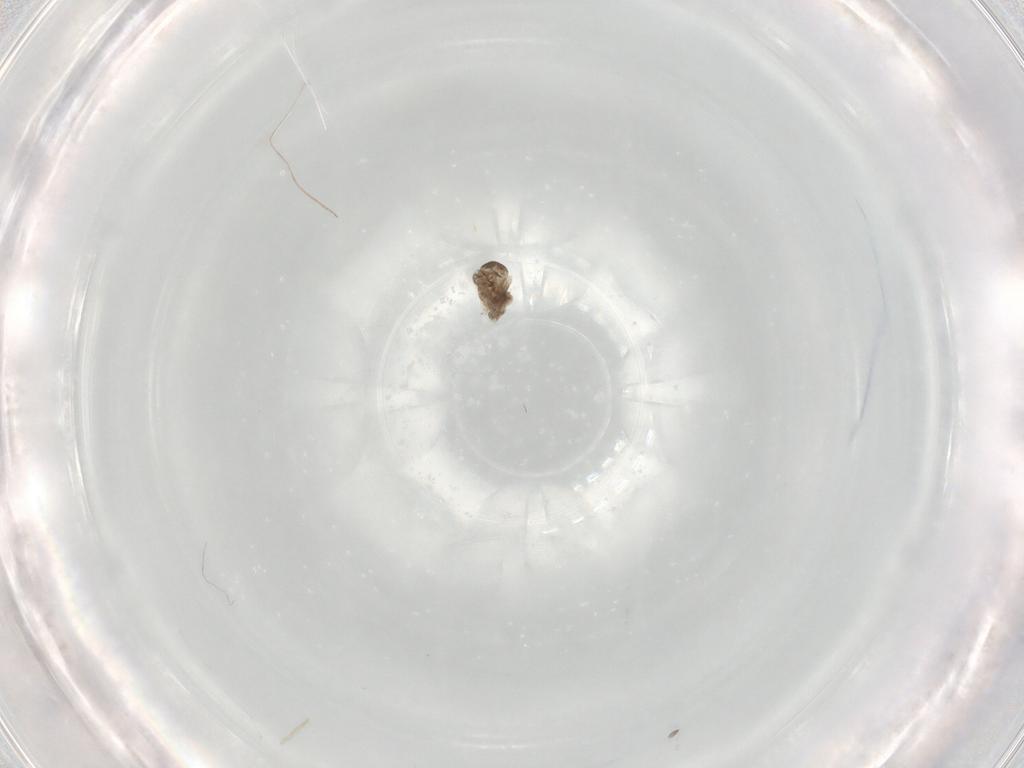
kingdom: Animalia
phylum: Arthropoda
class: Insecta
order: Diptera
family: Cecidomyiidae
